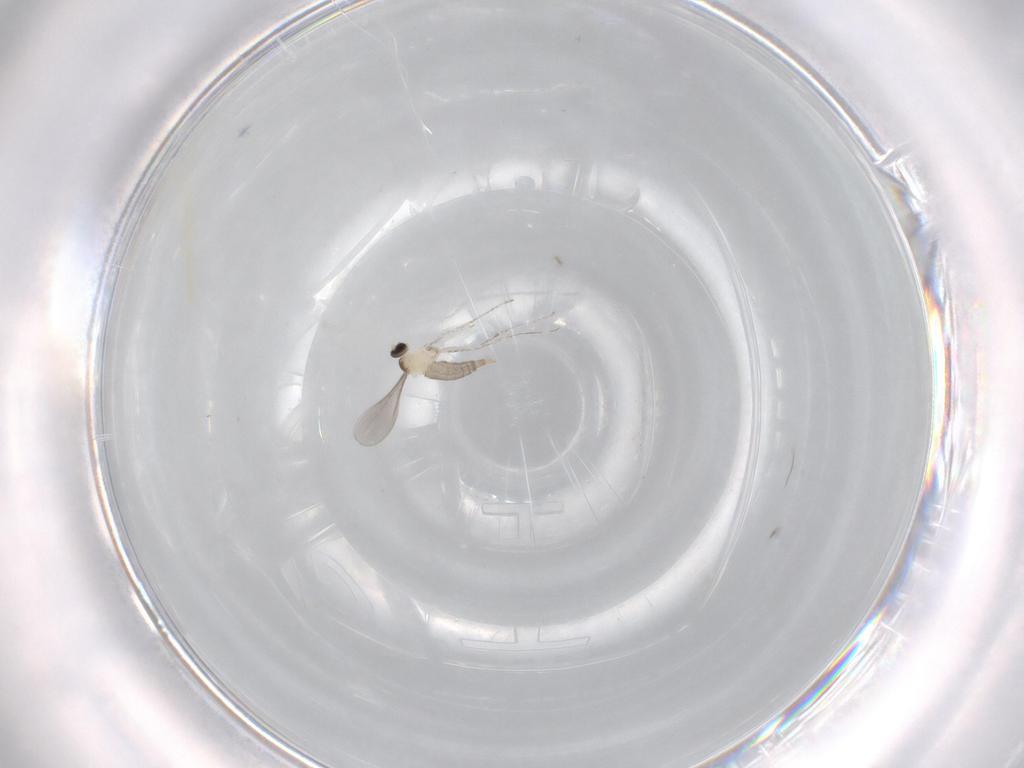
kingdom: Animalia
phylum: Arthropoda
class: Insecta
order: Diptera
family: Cecidomyiidae
